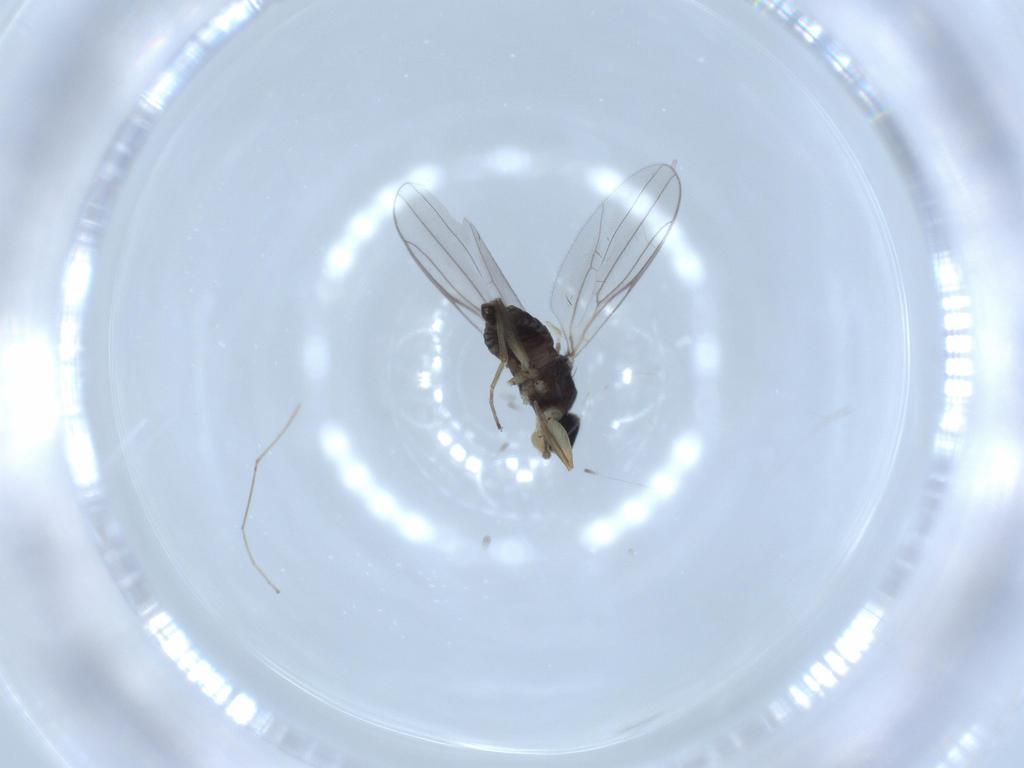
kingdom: Animalia
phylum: Arthropoda
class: Insecta
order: Diptera
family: Hybotidae
